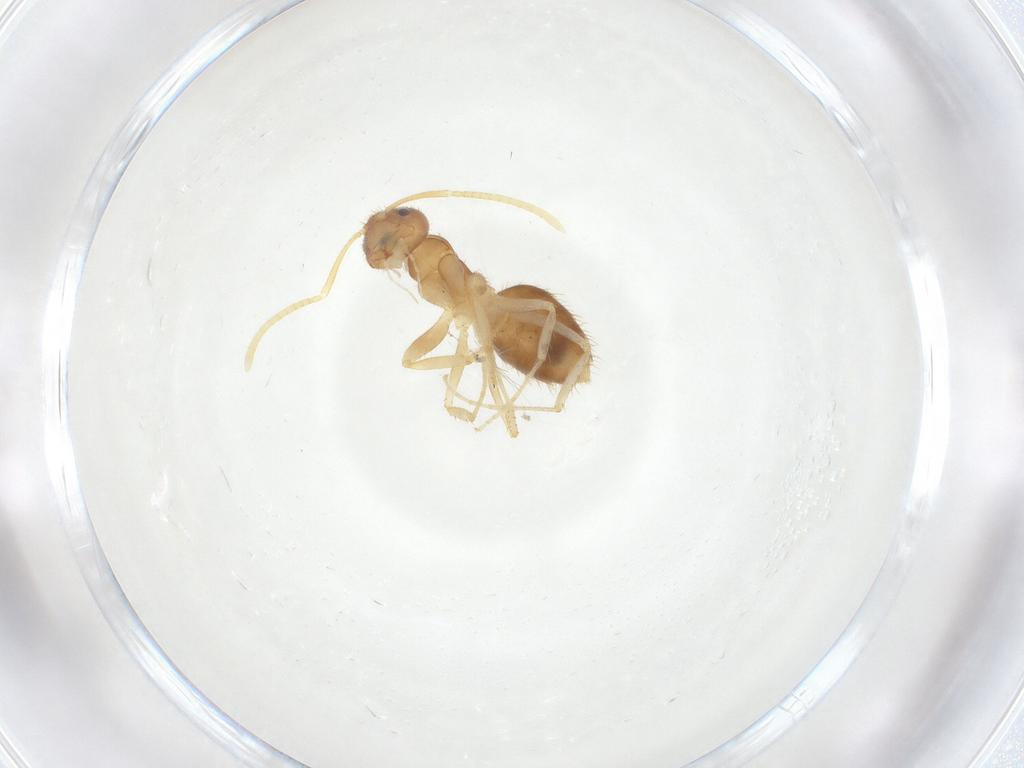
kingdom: Animalia
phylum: Arthropoda
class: Insecta
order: Hymenoptera
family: Formicidae
